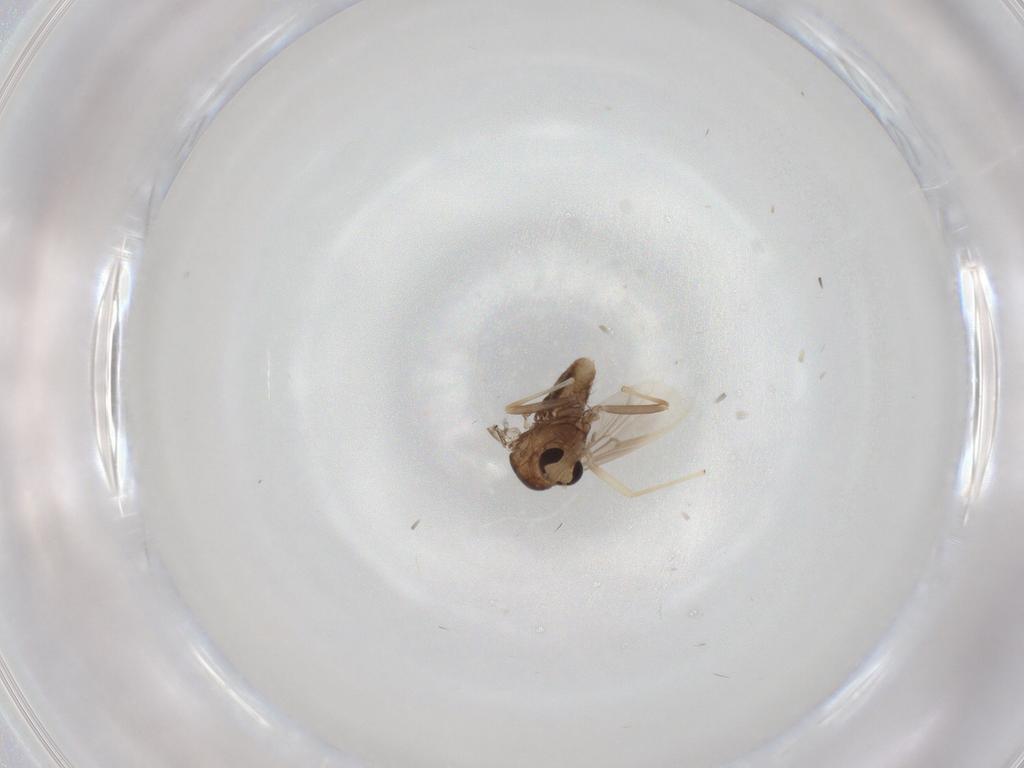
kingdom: Animalia
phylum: Arthropoda
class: Insecta
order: Diptera
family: Chironomidae
